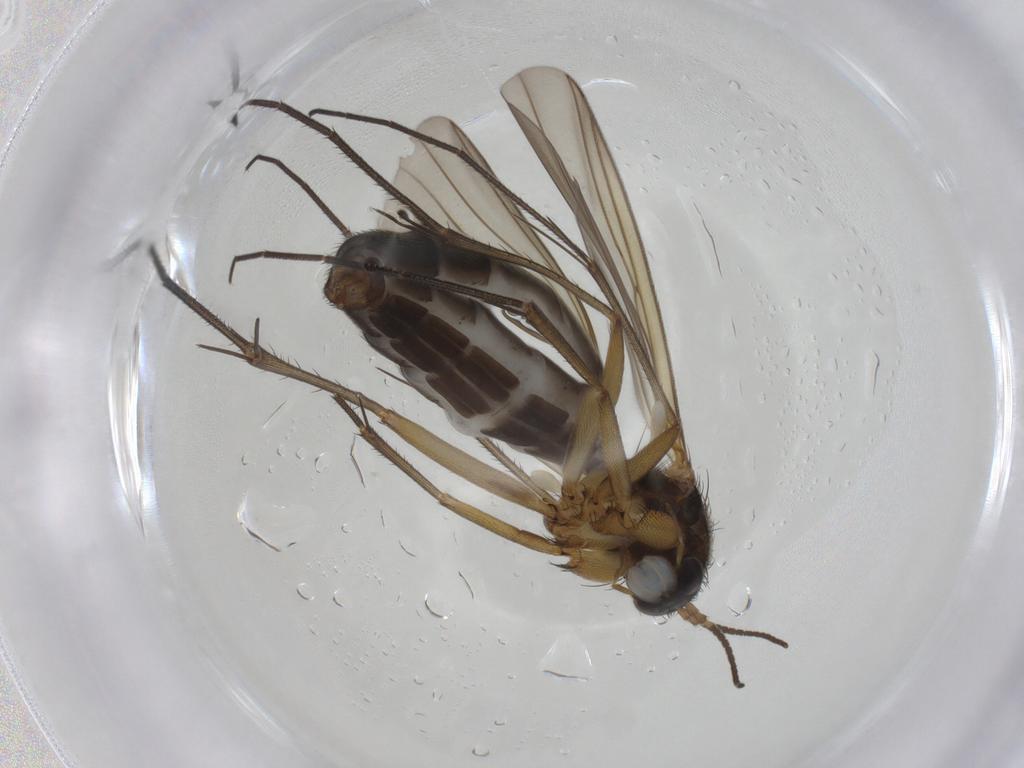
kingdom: Animalia
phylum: Arthropoda
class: Insecta
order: Diptera
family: Mycetophilidae
